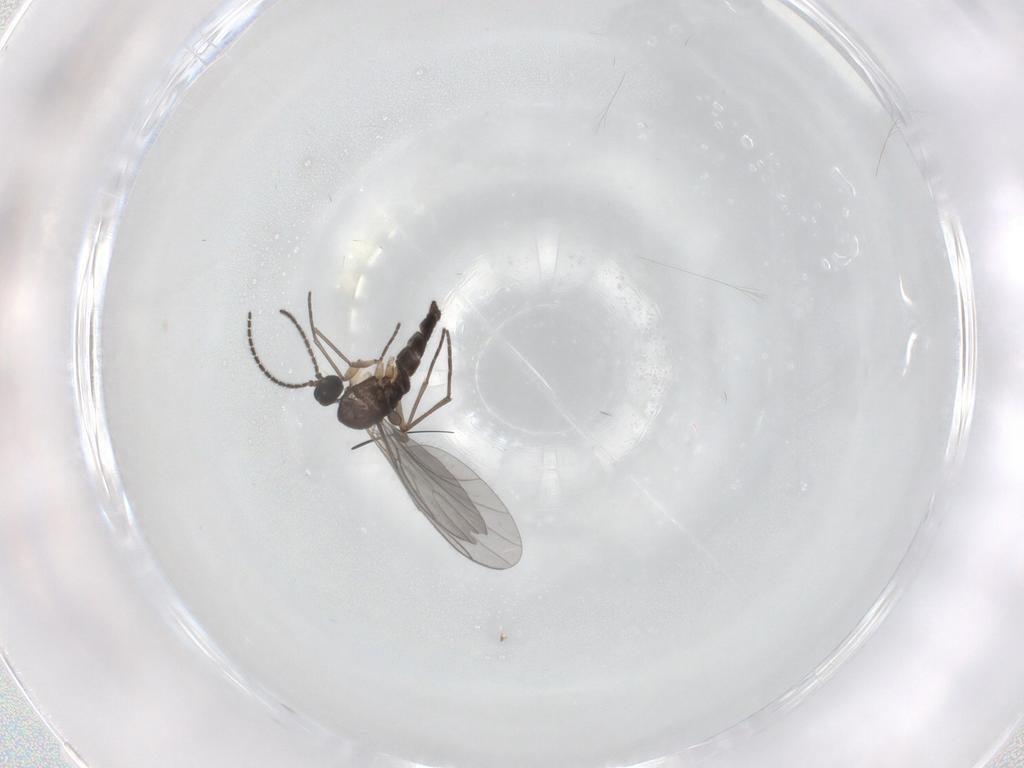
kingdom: Animalia
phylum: Arthropoda
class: Insecta
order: Diptera
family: Sciaridae
